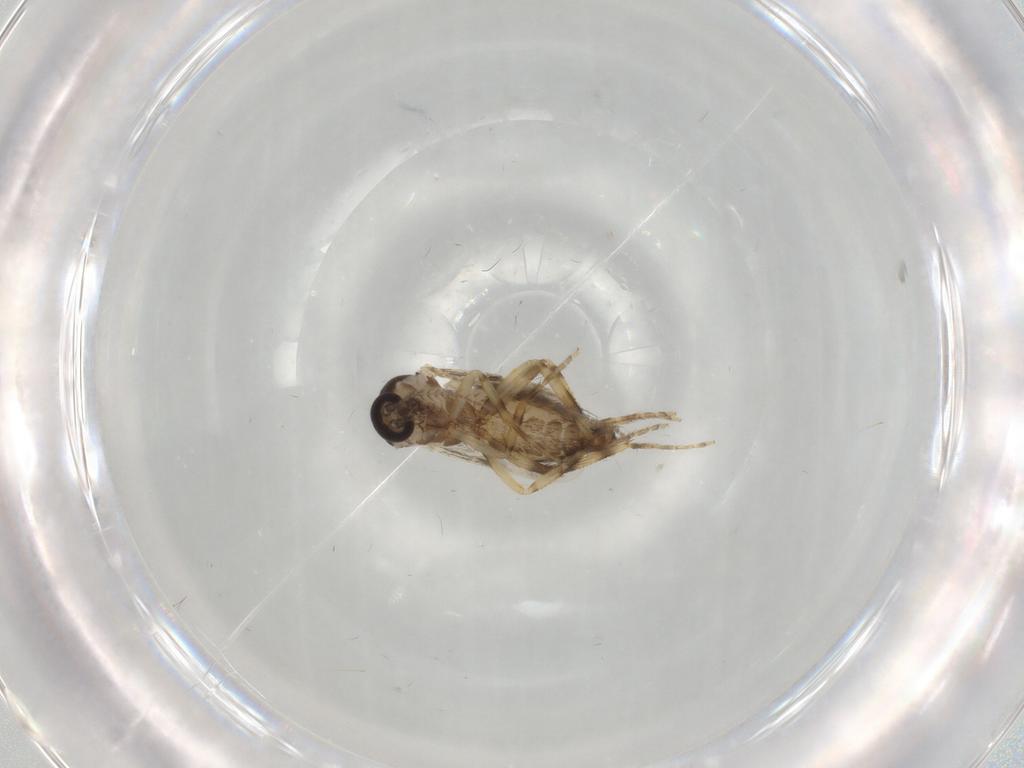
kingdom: Animalia
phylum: Arthropoda
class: Insecta
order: Diptera
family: Ceratopogonidae
